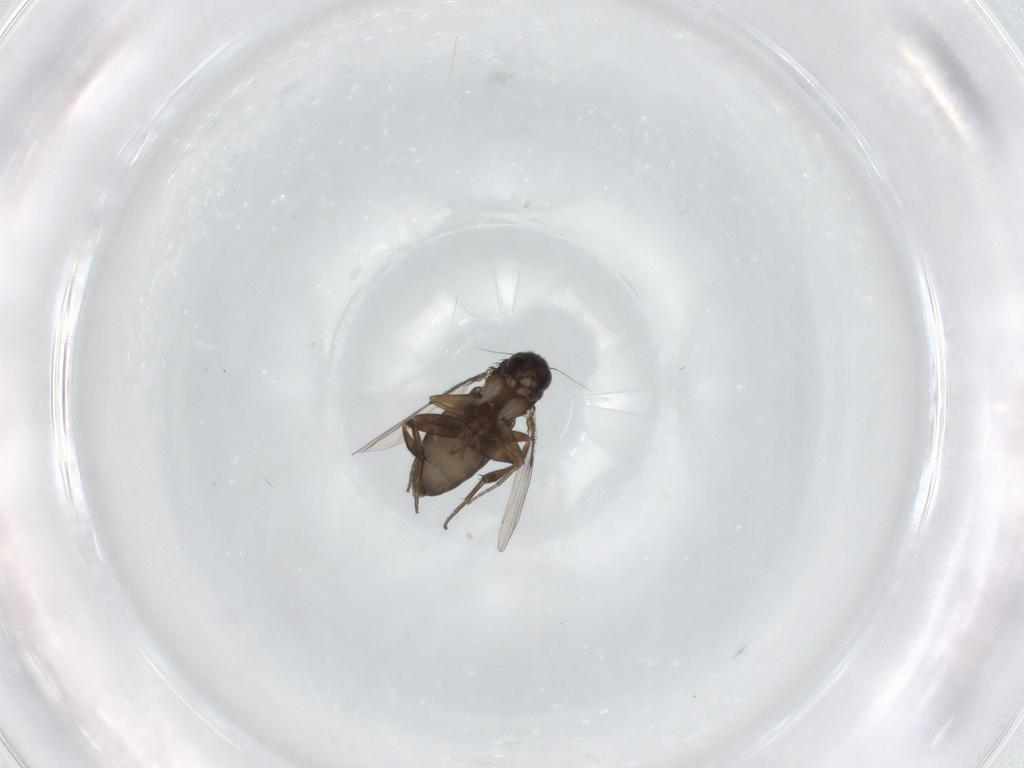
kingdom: Animalia
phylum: Arthropoda
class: Insecta
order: Diptera
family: Phoridae
